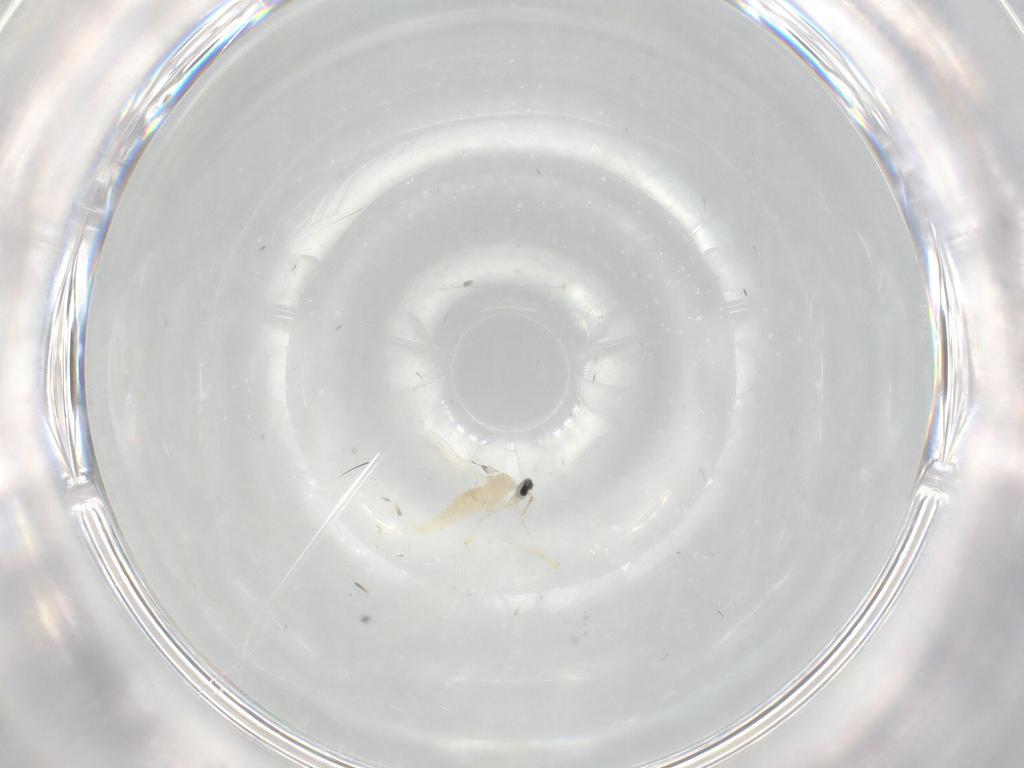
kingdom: Animalia
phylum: Arthropoda
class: Insecta
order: Diptera
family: Cecidomyiidae
